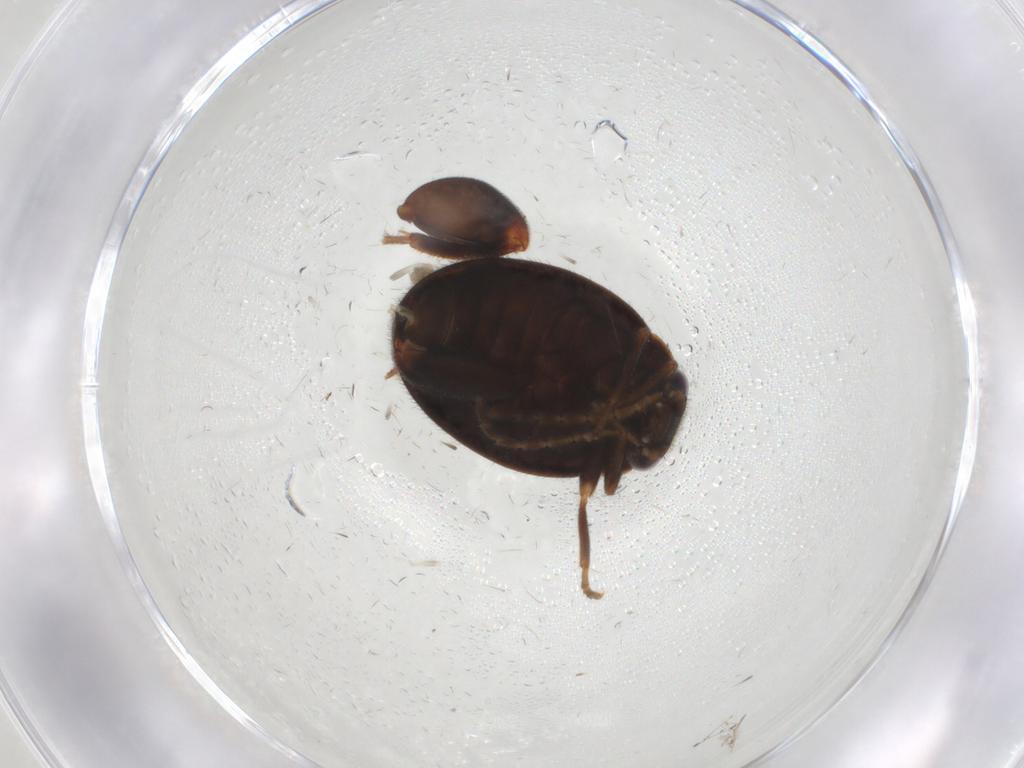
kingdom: Animalia
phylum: Arthropoda
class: Insecta
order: Coleoptera
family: Scirtidae
